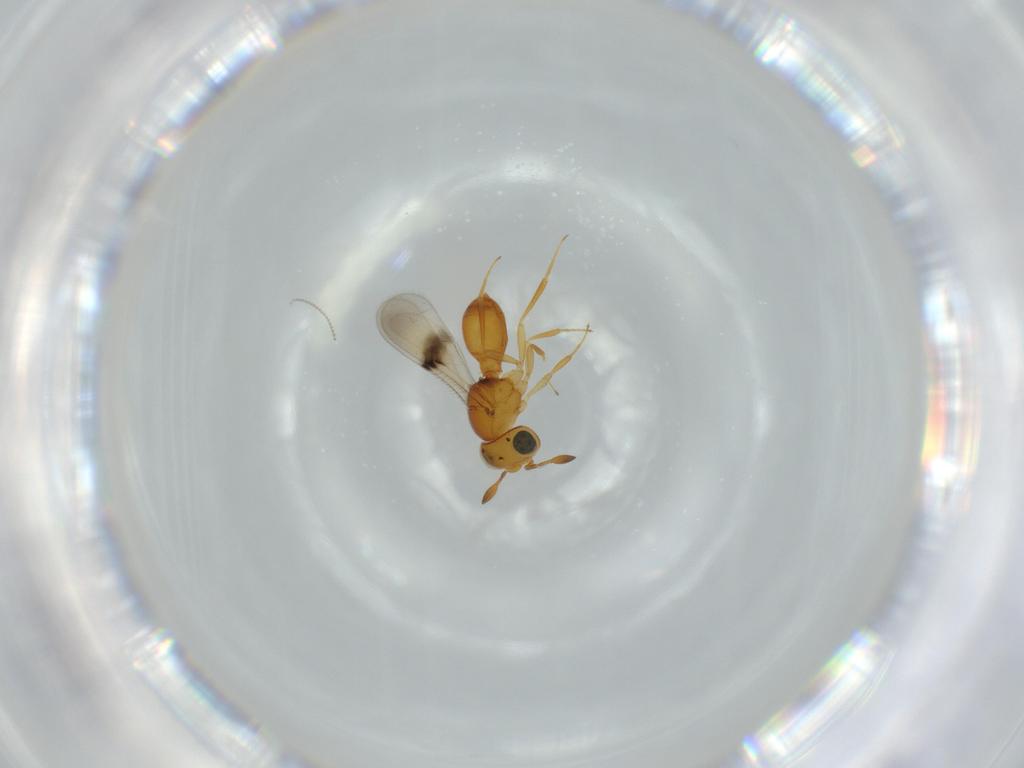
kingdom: Animalia
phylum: Arthropoda
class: Insecta
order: Hymenoptera
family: Scelionidae
